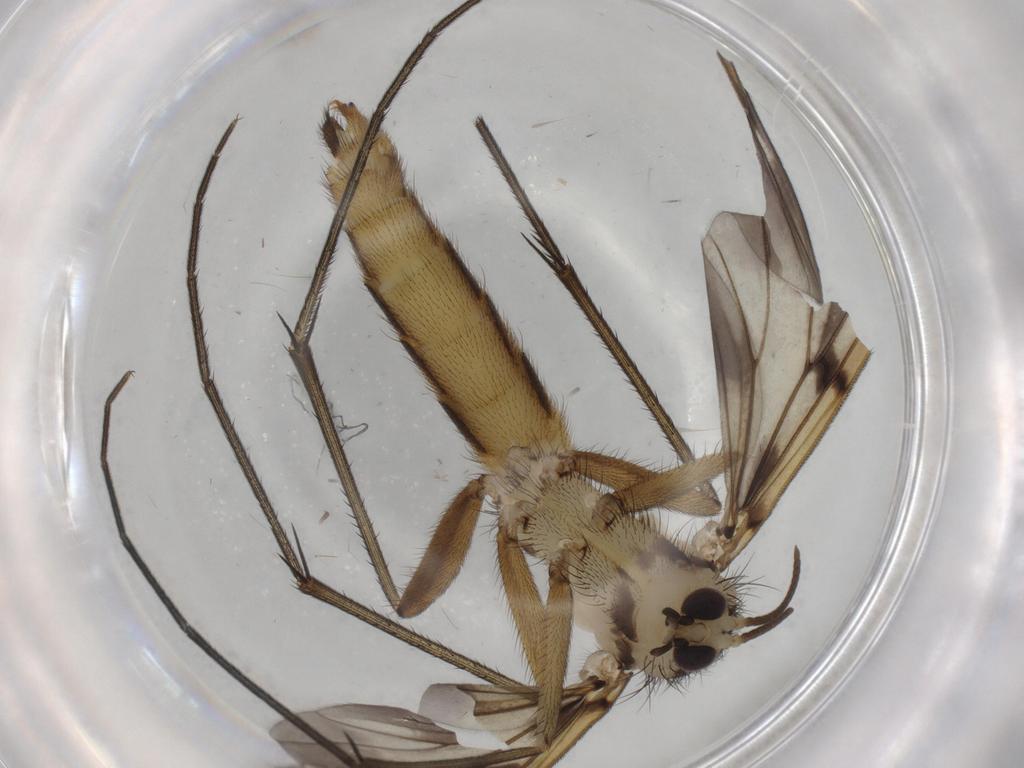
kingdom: Animalia
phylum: Arthropoda
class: Insecta
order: Diptera
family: Mycetophilidae
